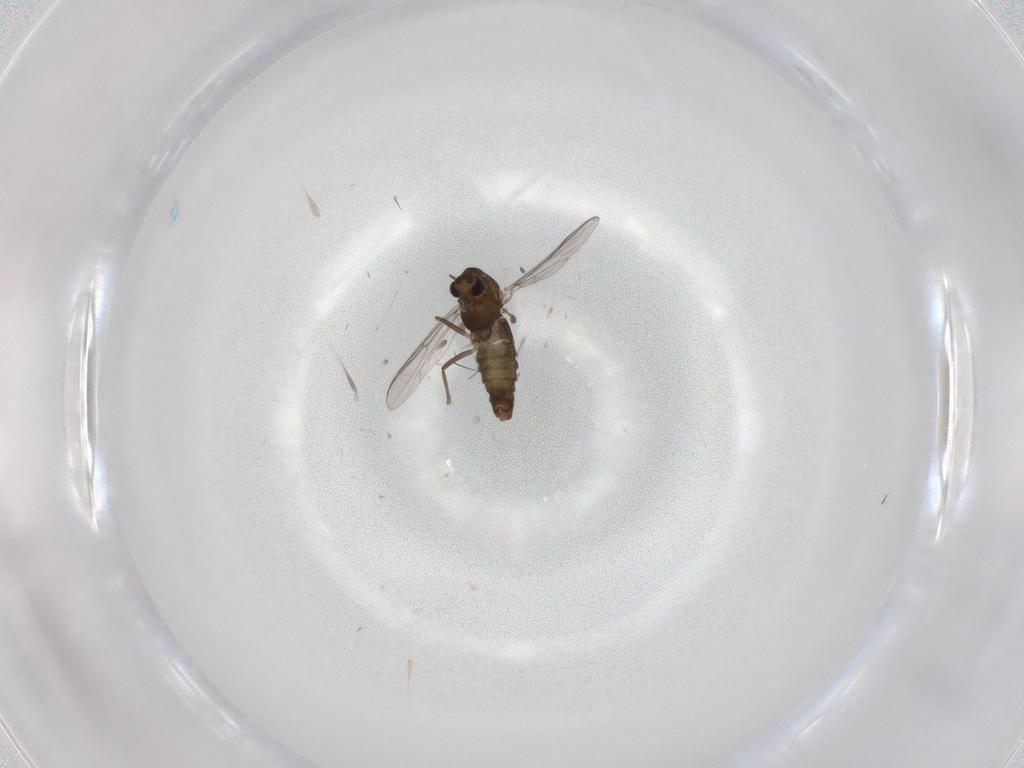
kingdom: Animalia
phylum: Arthropoda
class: Insecta
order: Diptera
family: Chironomidae
